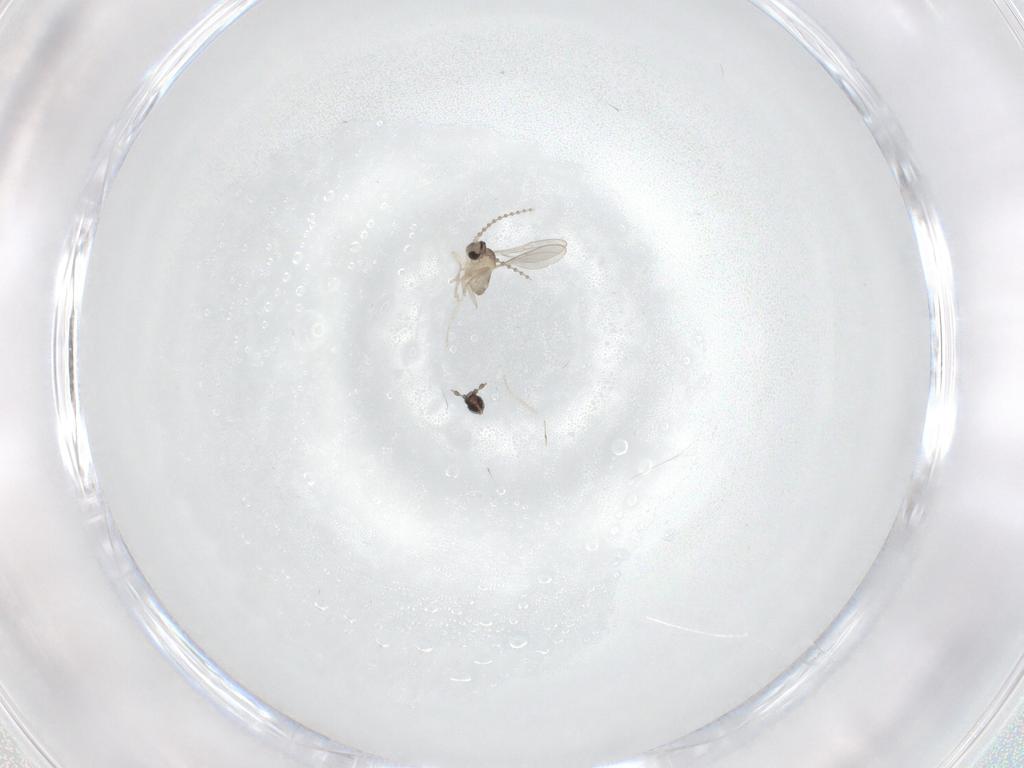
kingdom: Animalia
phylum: Arthropoda
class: Insecta
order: Diptera
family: Cecidomyiidae
